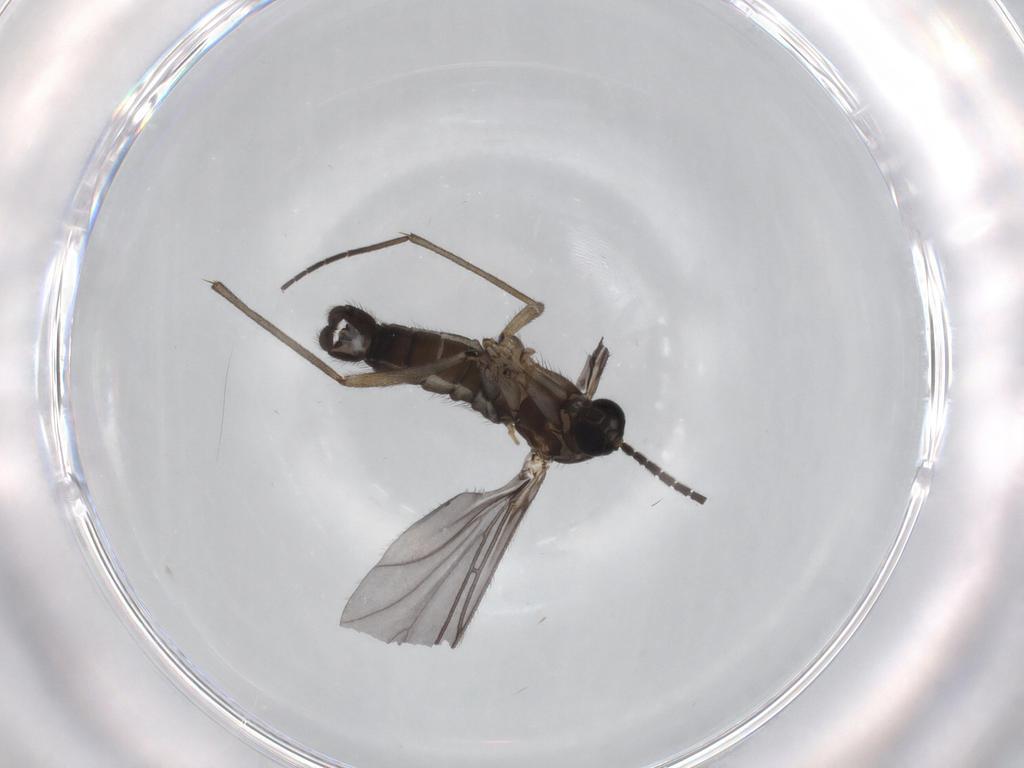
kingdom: Animalia
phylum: Arthropoda
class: Insecta
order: Diptera
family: Sciaridae
